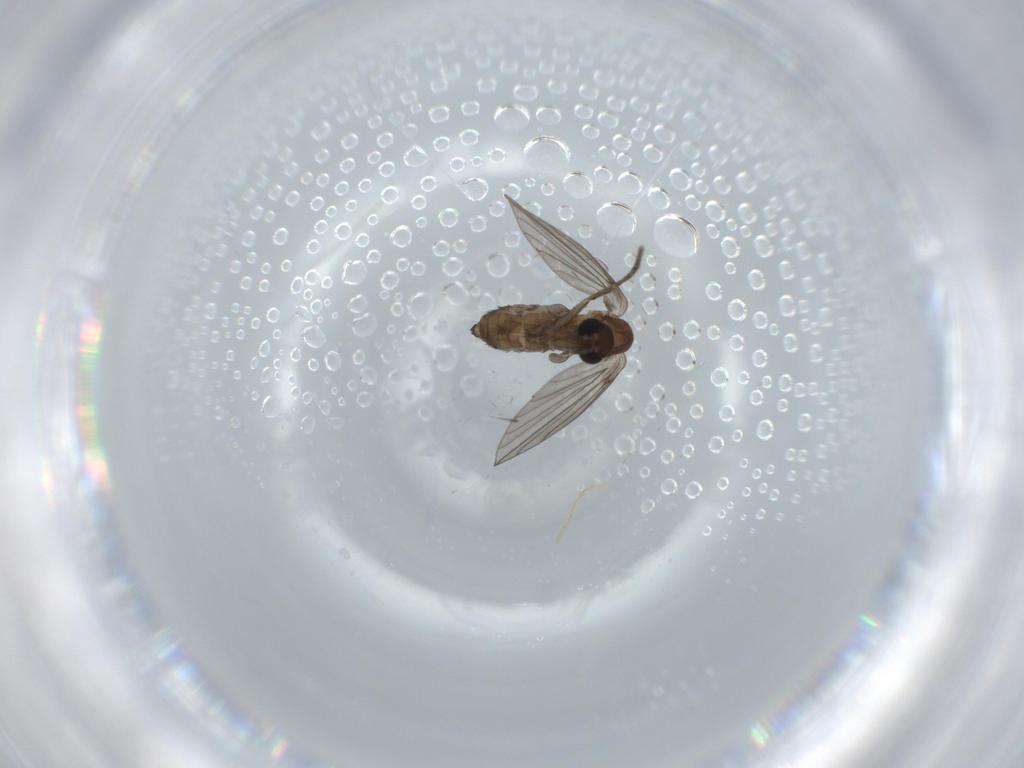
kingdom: Animalia
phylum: Arthropoda
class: Insecta
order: Diptera
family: Psychodidae
